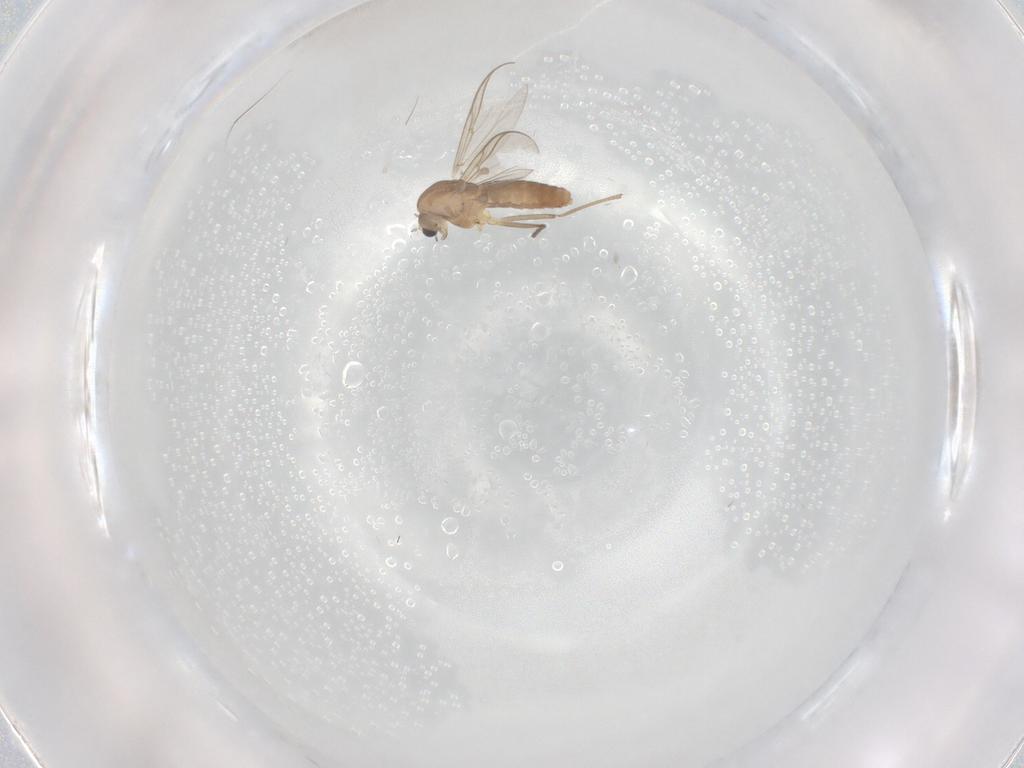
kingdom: Animalia
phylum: Arthropoda
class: Insecta
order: Diptera
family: Chironomidae
